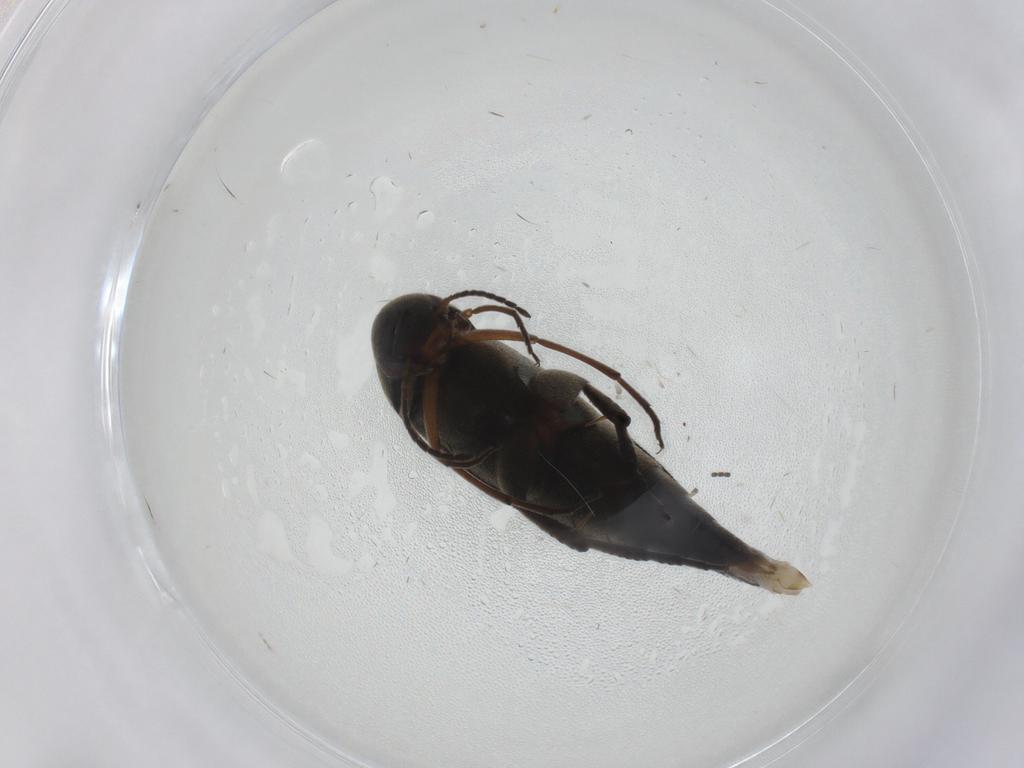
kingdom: Animalia
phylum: Arthropoda
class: Insecta
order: Coleoptera
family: Mordellidae
